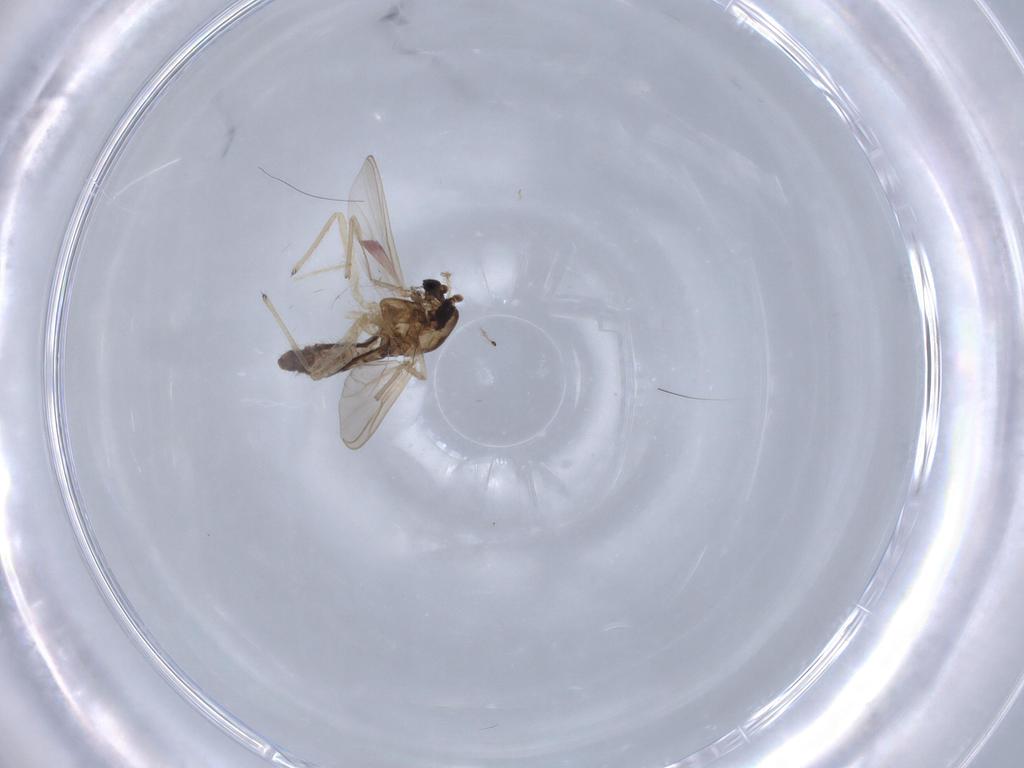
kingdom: Animalia
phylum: Arthropoda
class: Insecta
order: Diptera
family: Chironomidae
